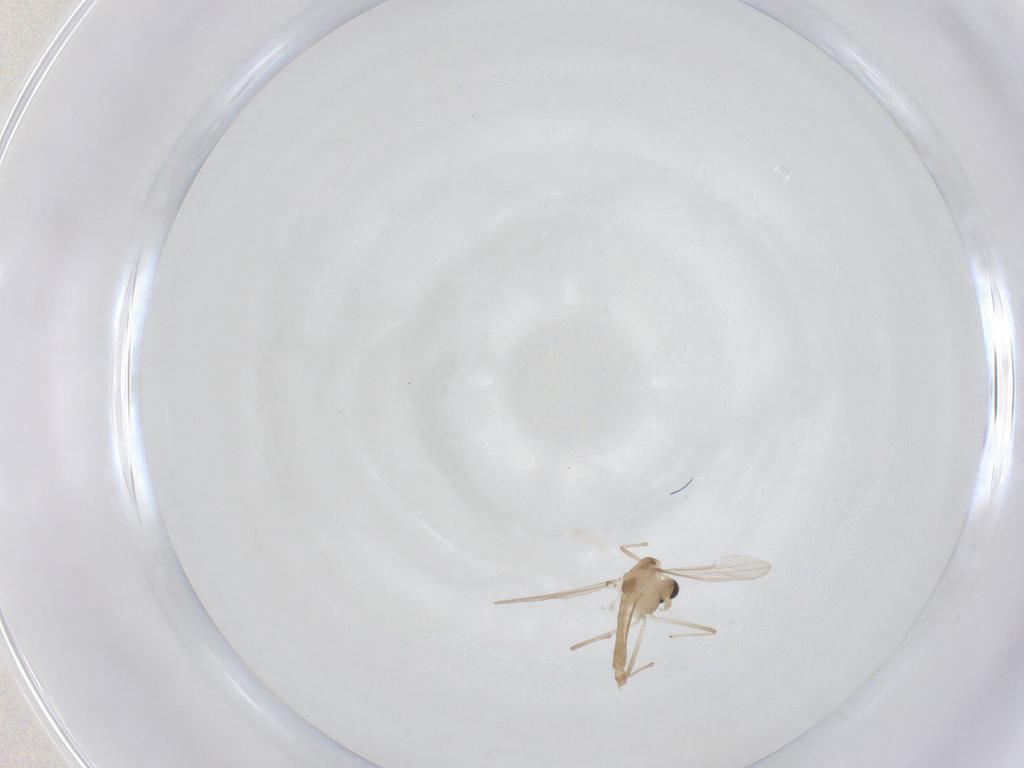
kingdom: Animalia
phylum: Arthropoda
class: Insecta
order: Diptera
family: Chironomidae
